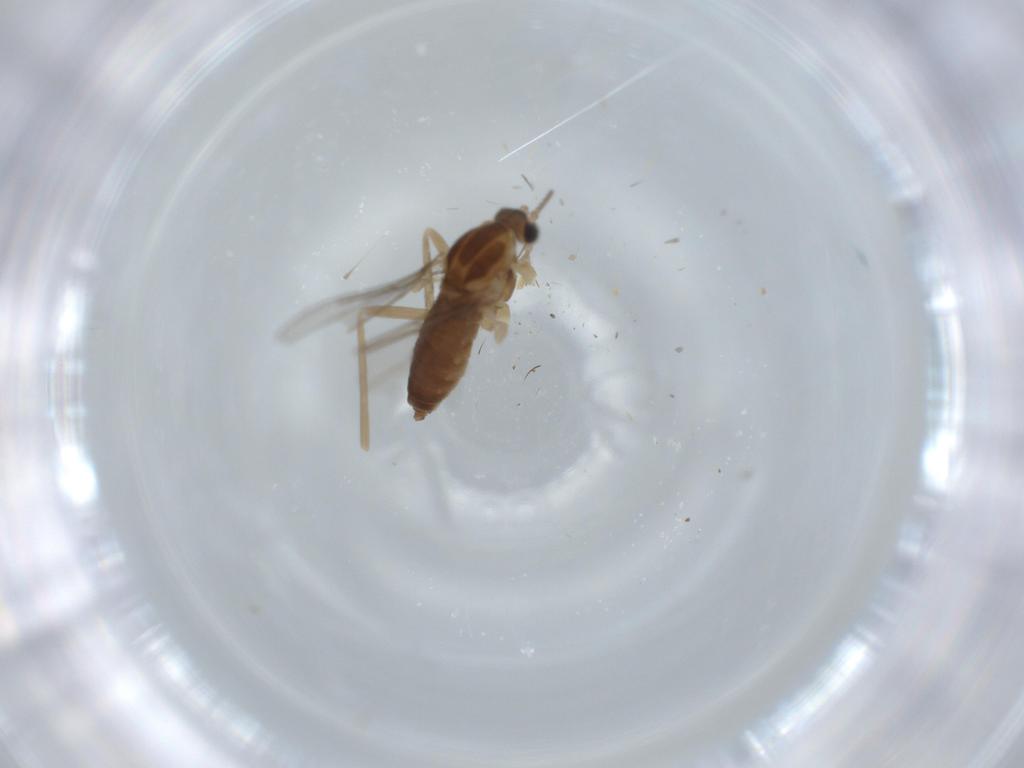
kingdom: Animalia
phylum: Arthropoda
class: Insecta
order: Diptera
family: Cecidomyiidae
